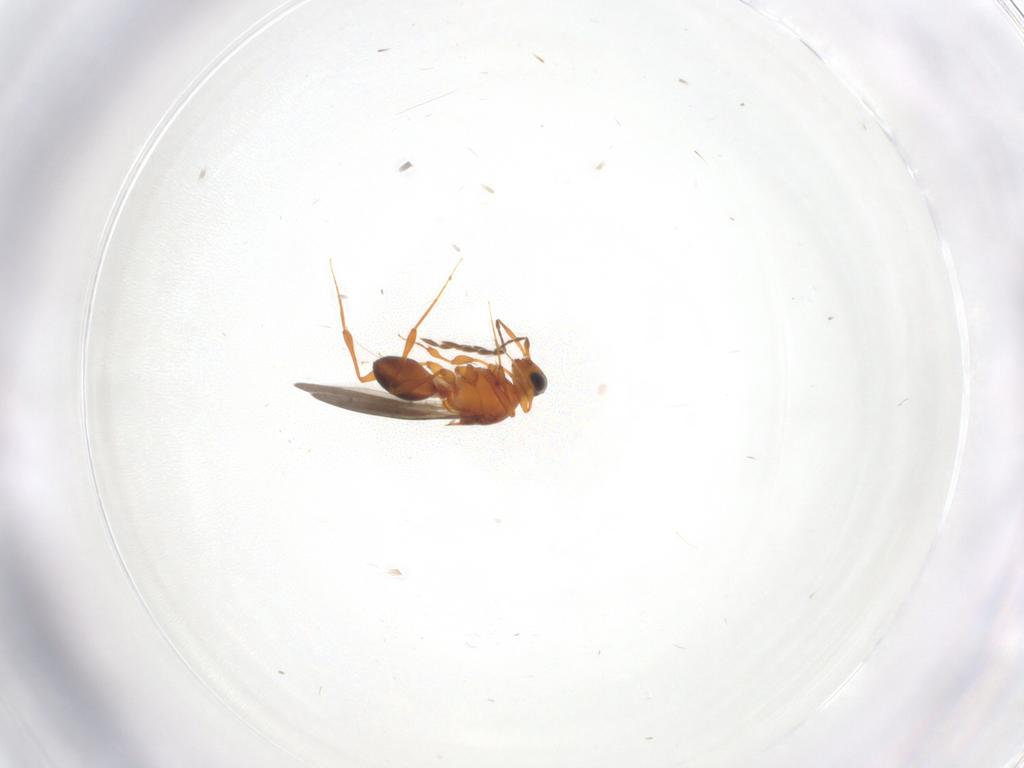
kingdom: Animalia
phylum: Arthropoda
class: Insecta
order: Hymenoptera
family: Platygastridae
